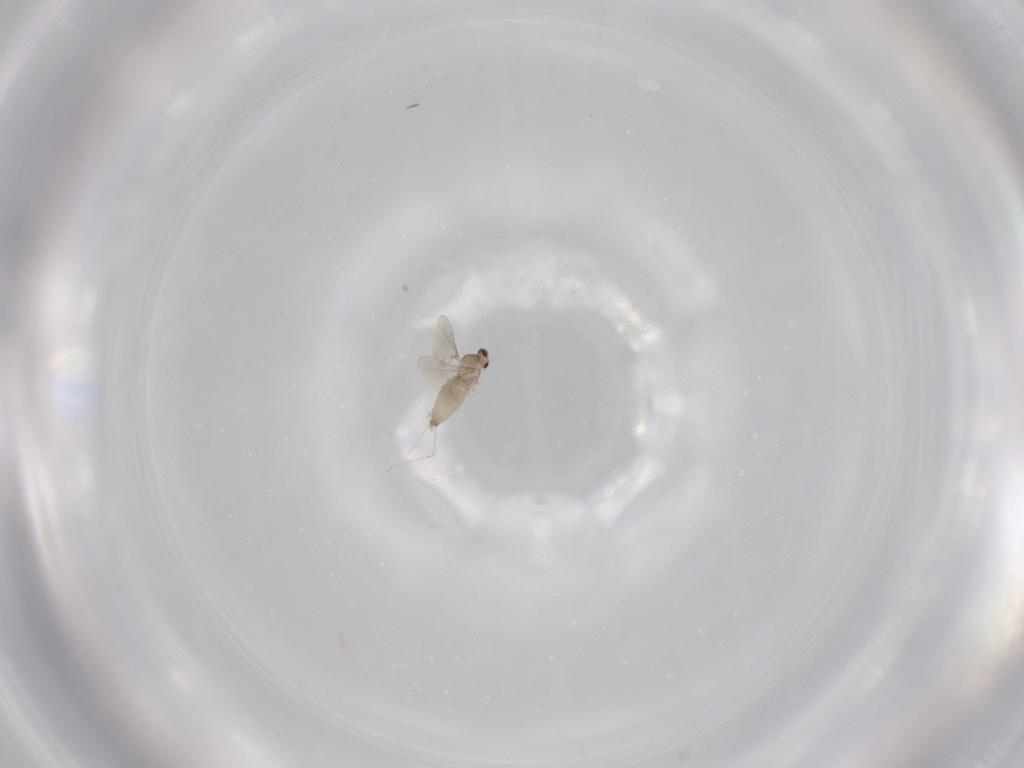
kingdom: Animalia
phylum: Arthropoda
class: Insecta
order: Diptera
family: Cecidomyiidae
